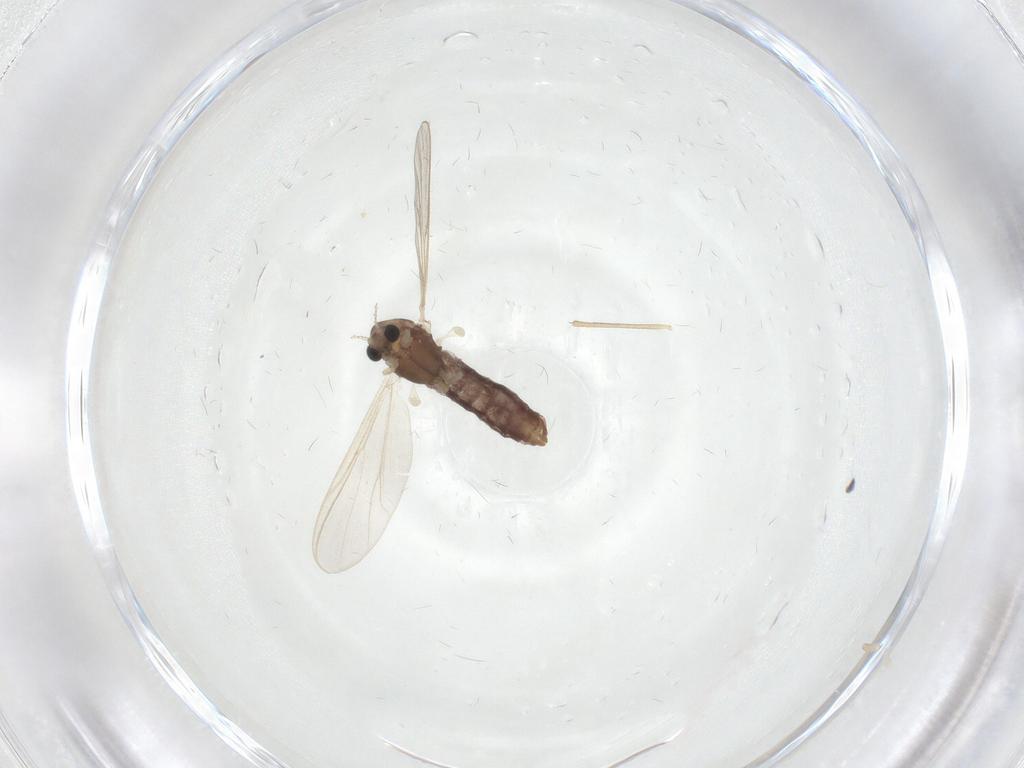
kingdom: Animalia
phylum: Arthropoda
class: Insecta
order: Diptera
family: Chironomidae
